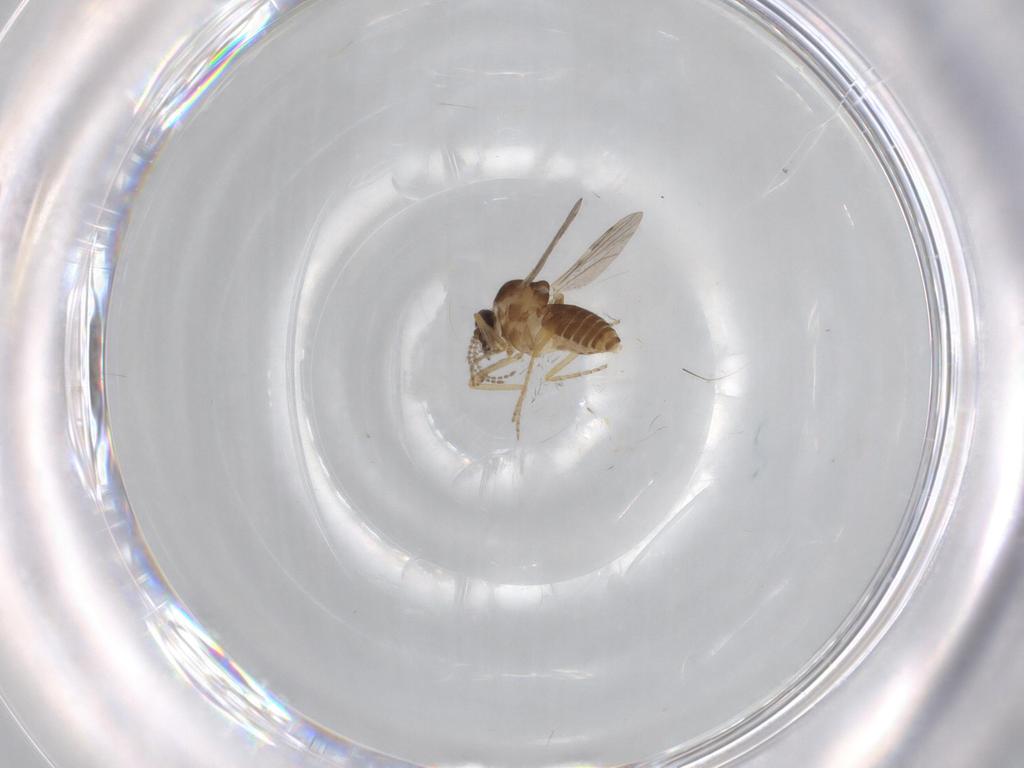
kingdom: Animalia
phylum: Arthropoda
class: Insecta
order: Diptera
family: Ceratopogonidae
